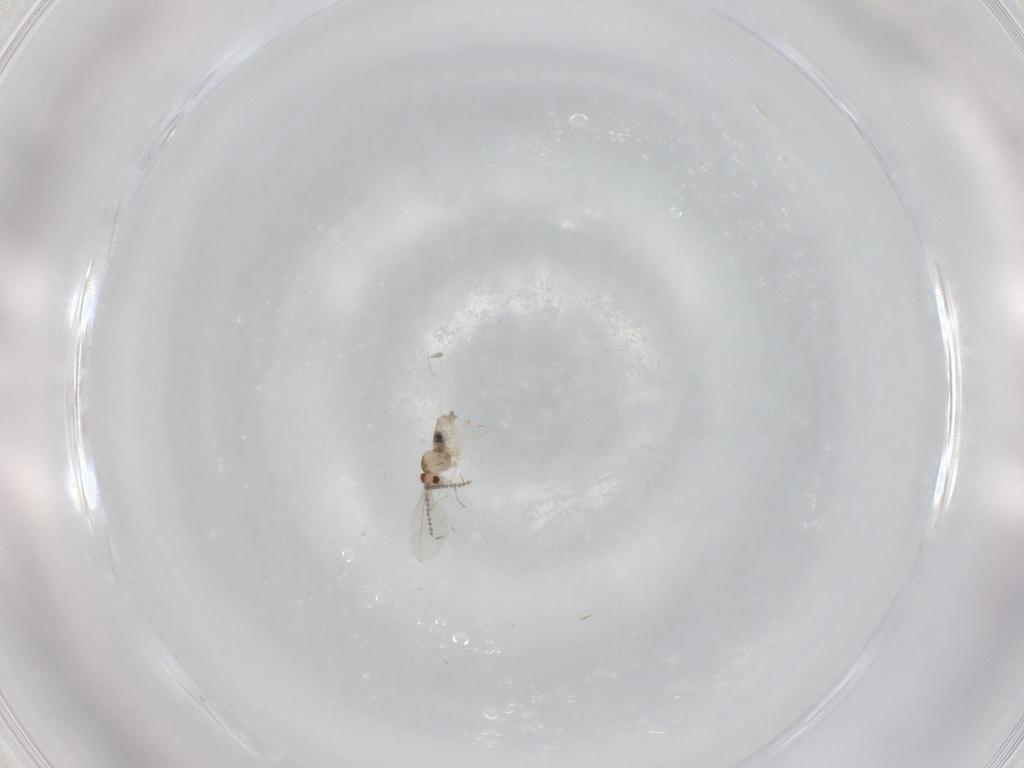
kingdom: Animalia
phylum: Arthropoda
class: Insecta
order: Diptera
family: Cecidomyiidae
